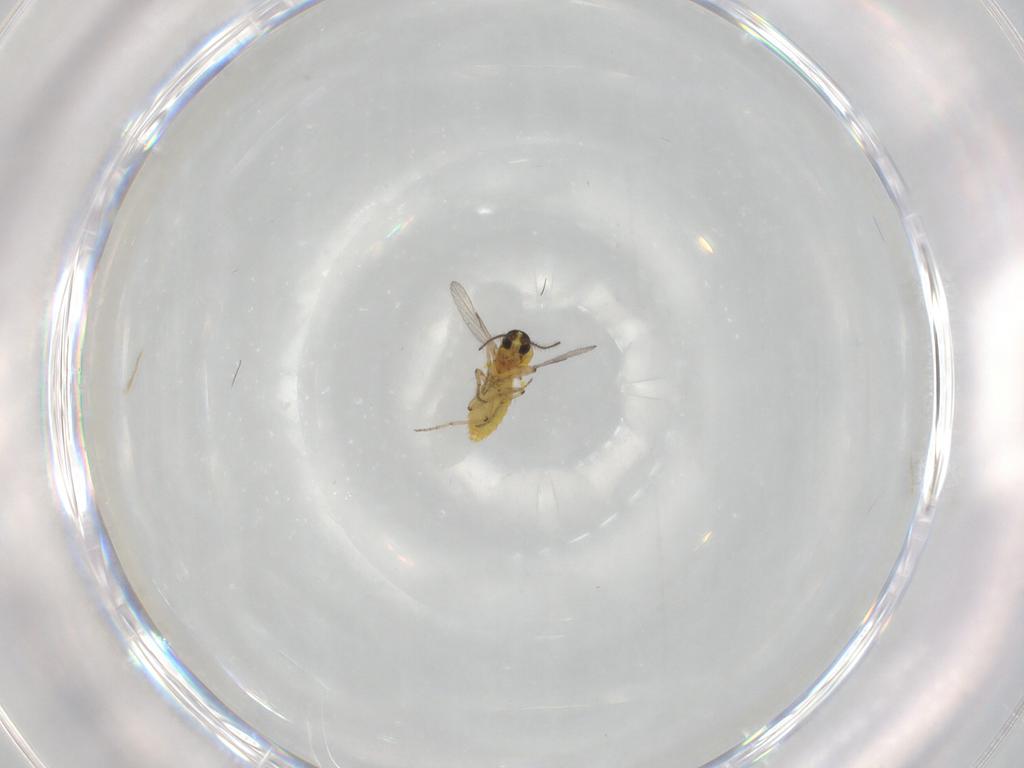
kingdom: Animalia
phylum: Arthropoda
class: Insecta
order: Diptera
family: Ceratopogonidae
